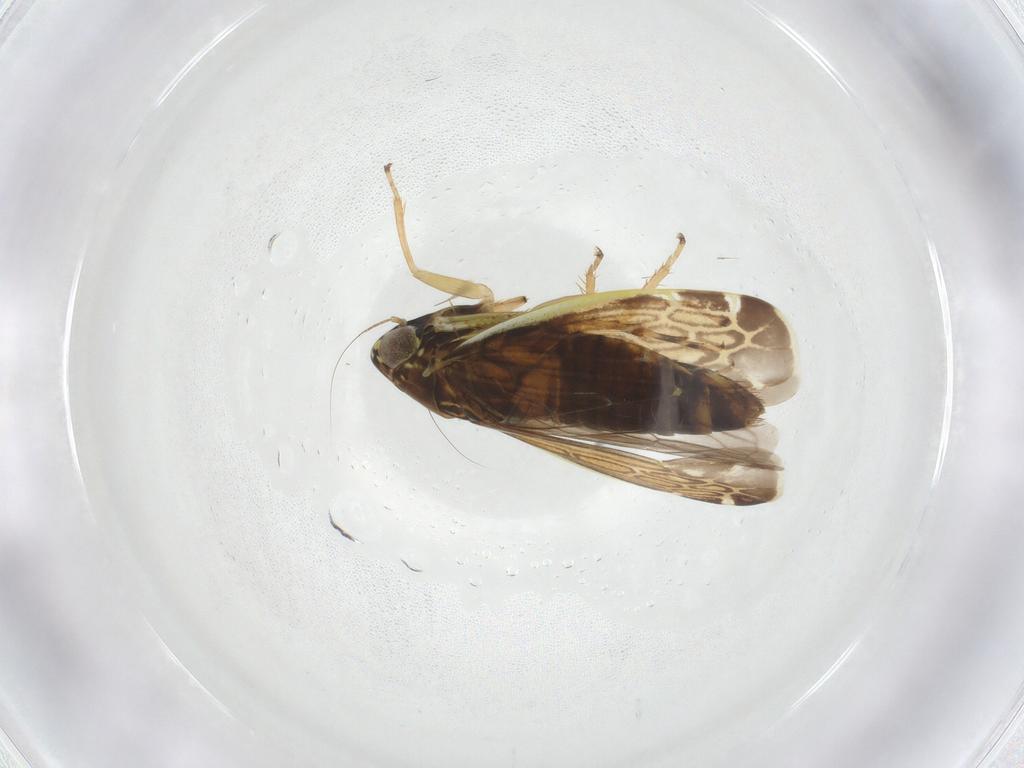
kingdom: Animalia
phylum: Arthropoda
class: Insecta
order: Hemiptera
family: Cicadellidae
